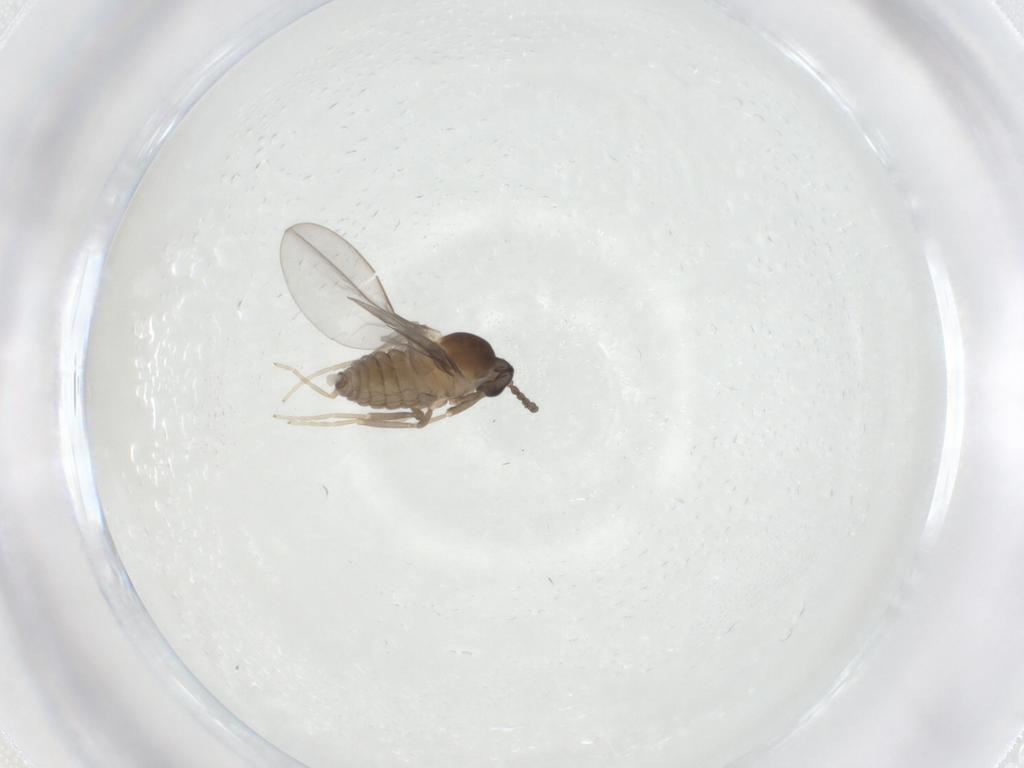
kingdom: Animalia
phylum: Arthropoda
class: Insecta
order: Diptera
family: Cecidomyiidae
